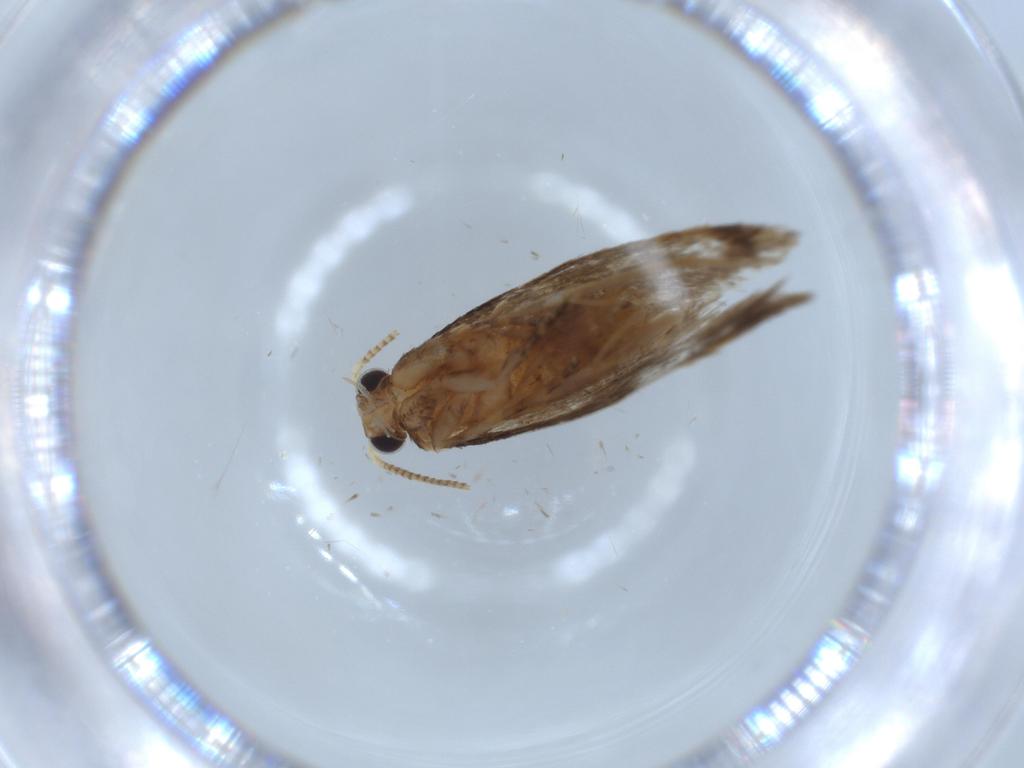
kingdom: Animalia
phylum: Arthropoda
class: Insecta
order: Lepidoptera
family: Tineidae
